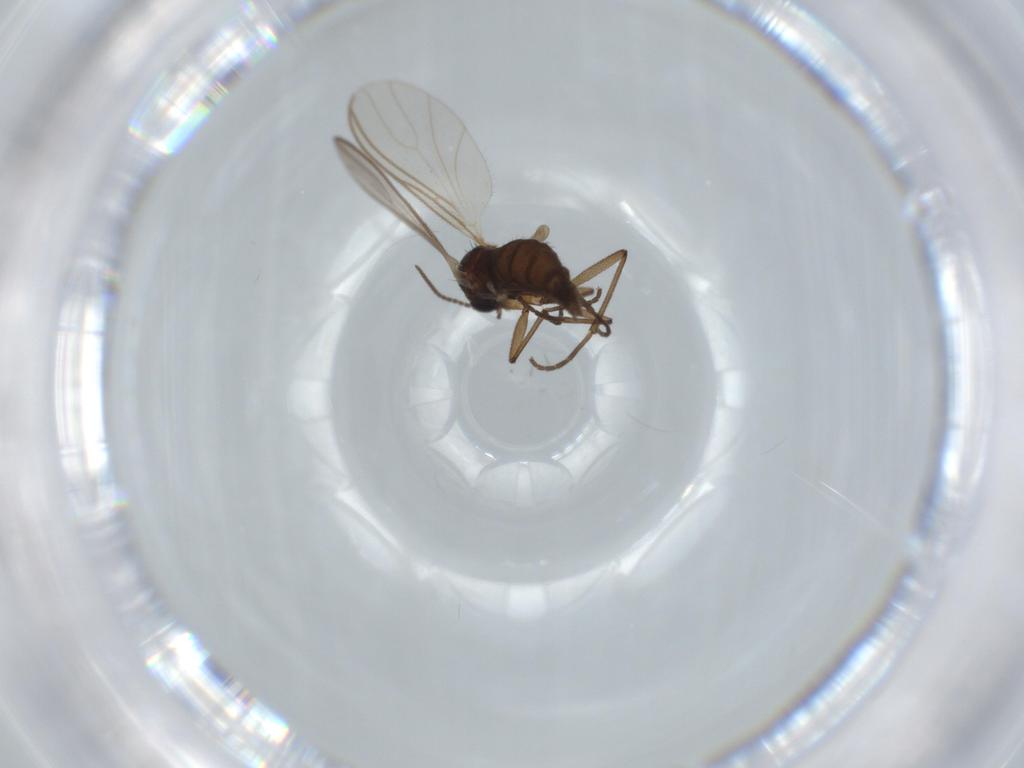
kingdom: Animalia
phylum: Arthropoda
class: Insecta
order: Diptera
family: Sciaridae
